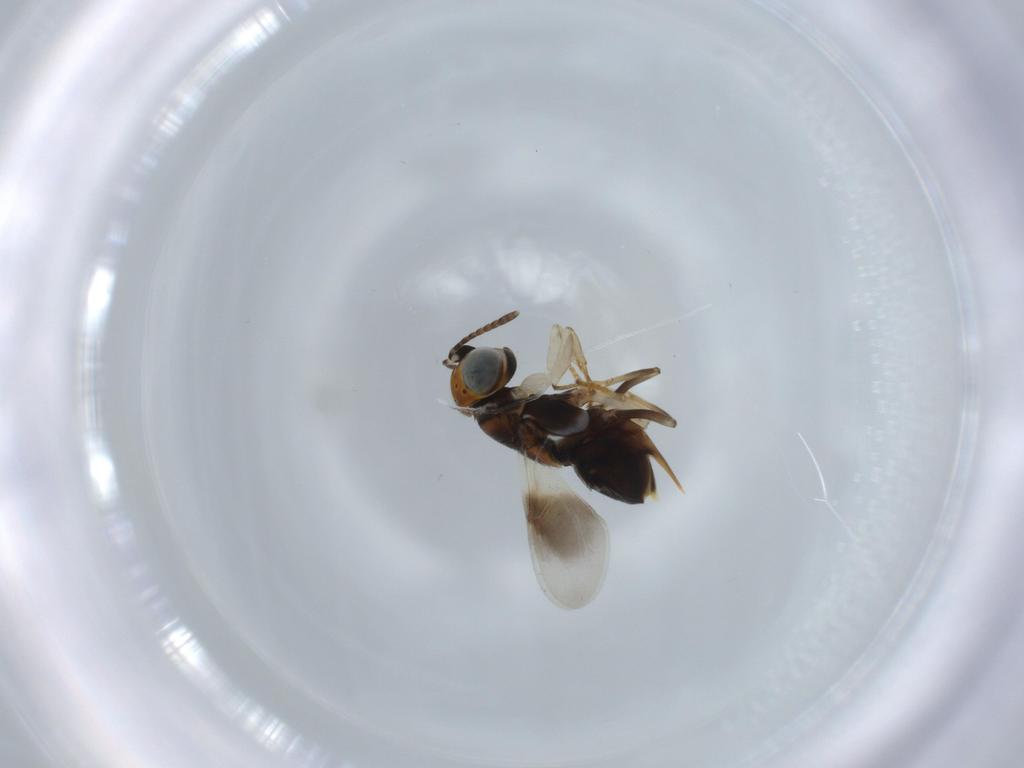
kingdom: Animalia
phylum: Arthropoda
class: Insecta
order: Hymenoptera
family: Encyrtidae
